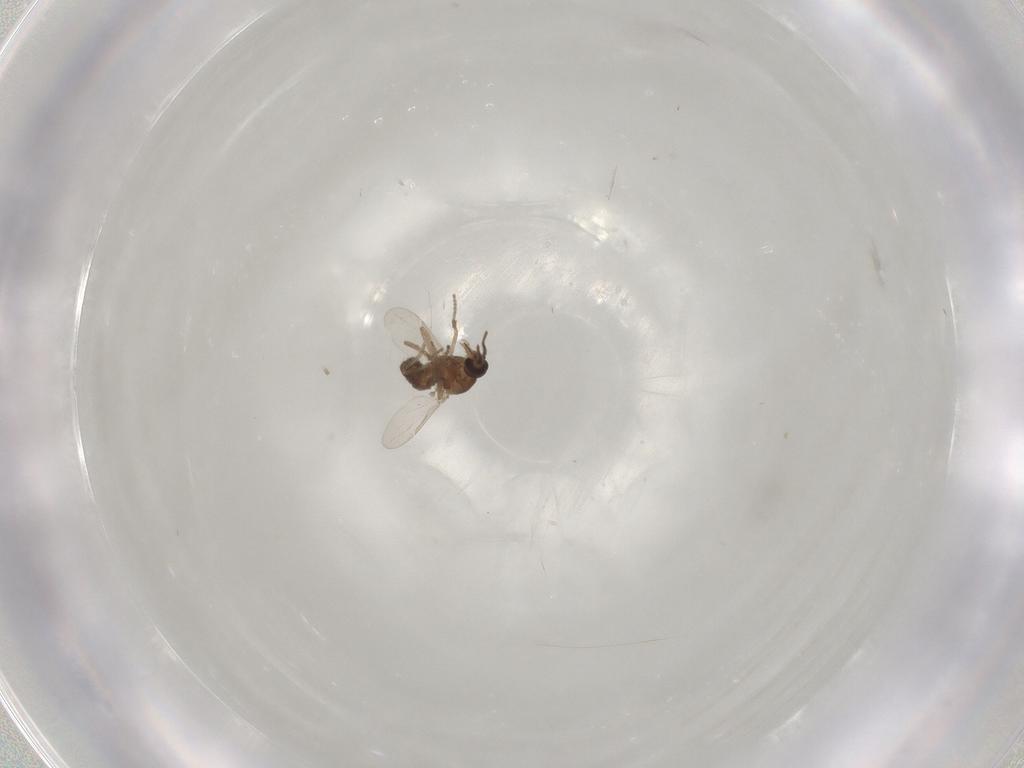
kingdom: Animalia
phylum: Arthropoda
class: Insecta
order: Diptera
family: Ceratopogonidae
